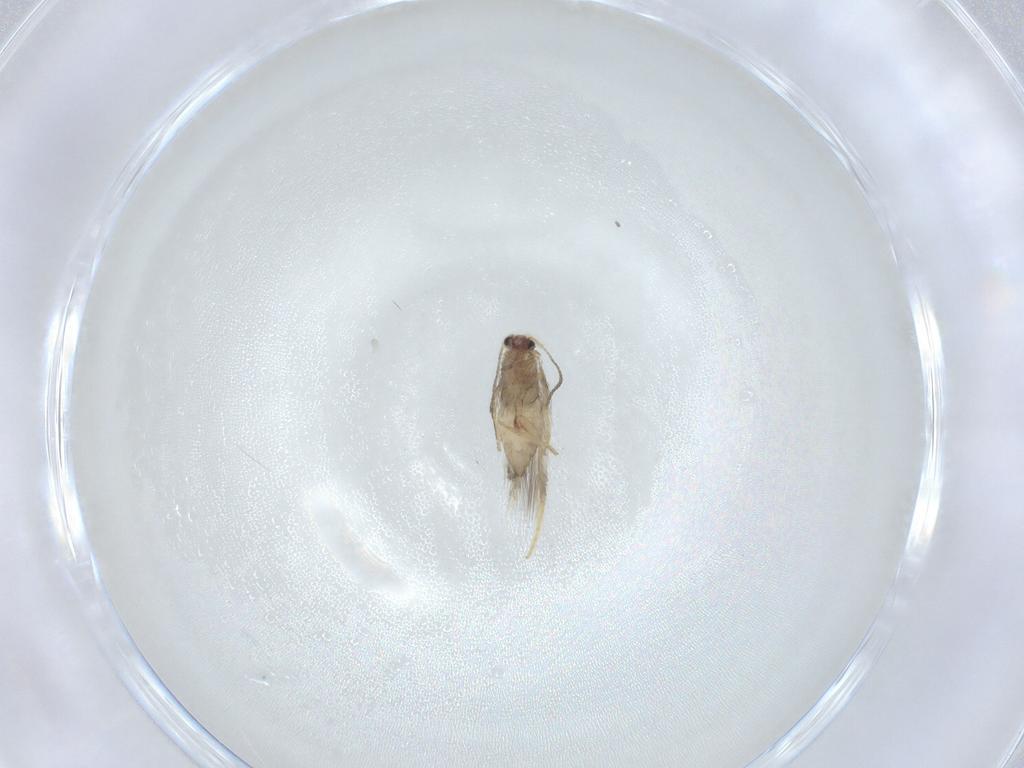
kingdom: Animalia
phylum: Arthropoda
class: Insecta
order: Lepidoptera
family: Nepticulidae
